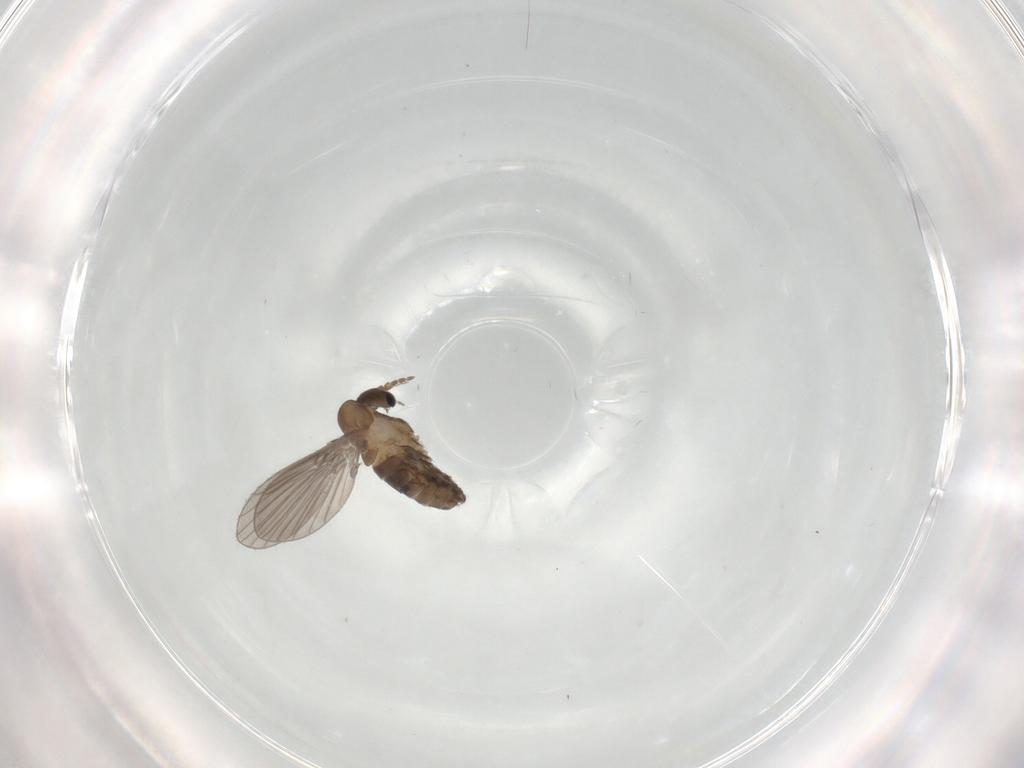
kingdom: Animalia
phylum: Arthropoda
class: Insecta
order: Diptera
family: Psychodidae
